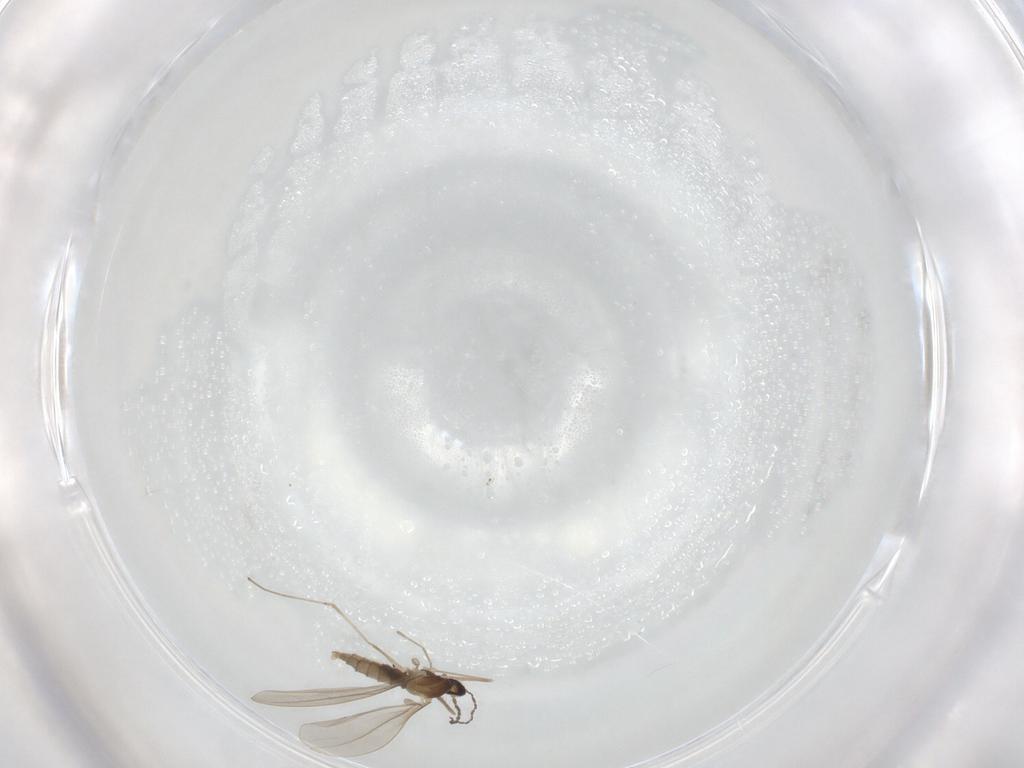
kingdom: Animalia
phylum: Arthropoda
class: Insecta
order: Diptera
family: Cecidomyiidae
